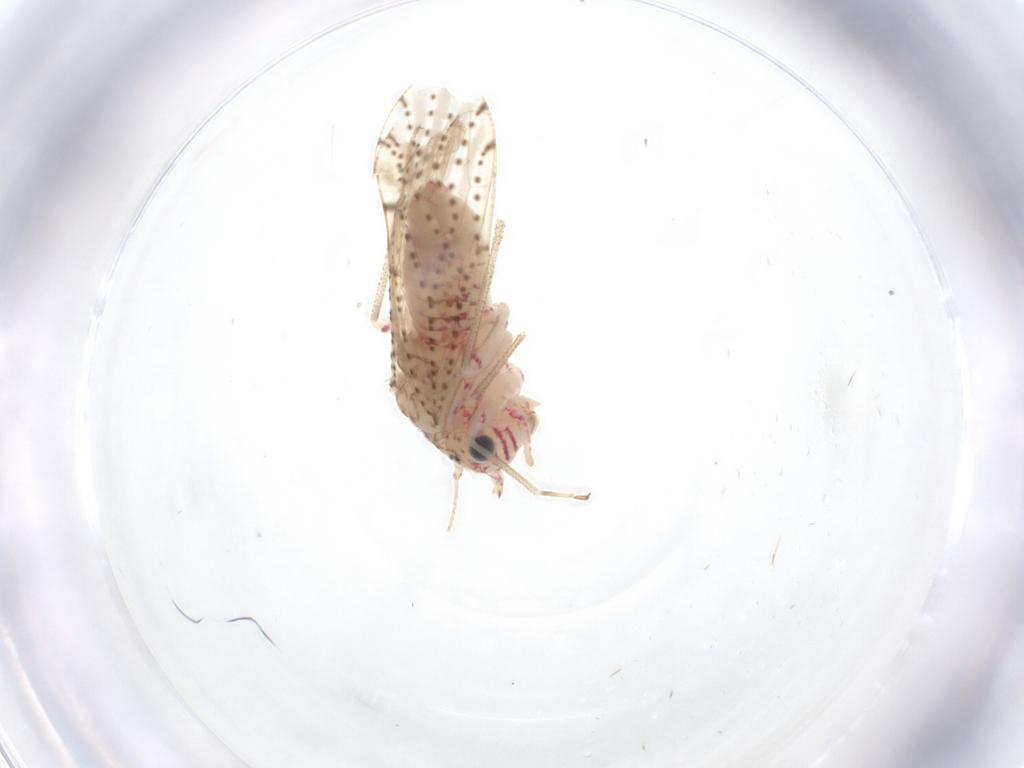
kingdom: Animalia
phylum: Arthropoda
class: Insecta
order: Psocodea
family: Philotarsidae
